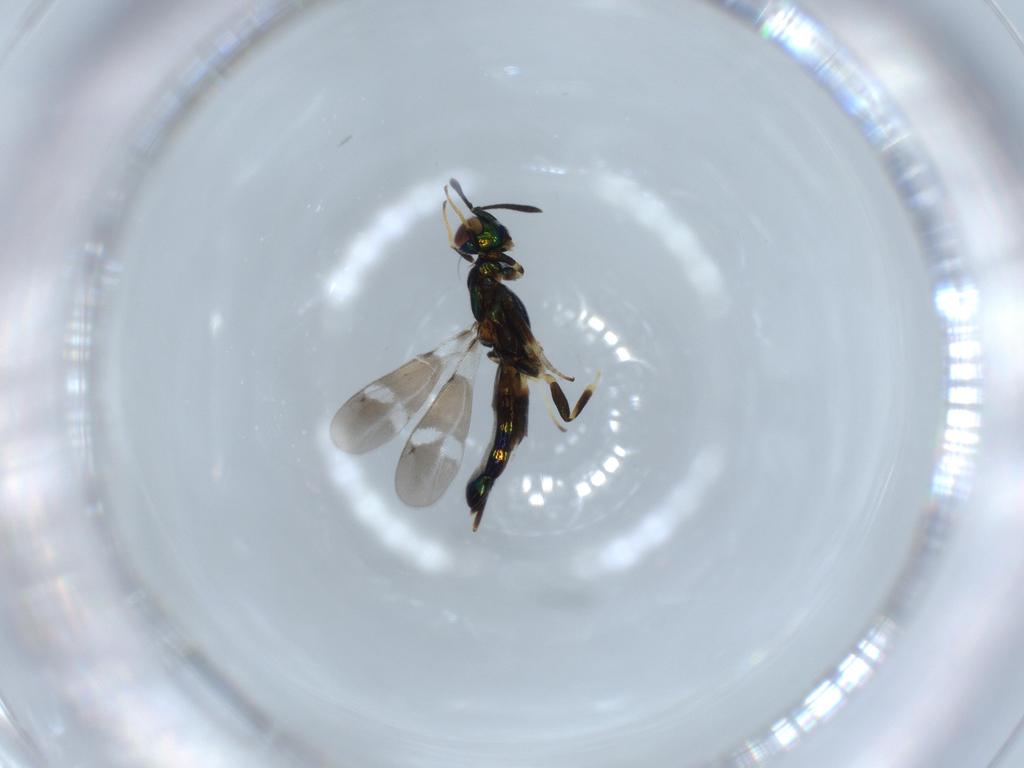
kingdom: Animalia
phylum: Arthropoda
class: Insecta
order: Hymenoptera
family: Eupelmidae
